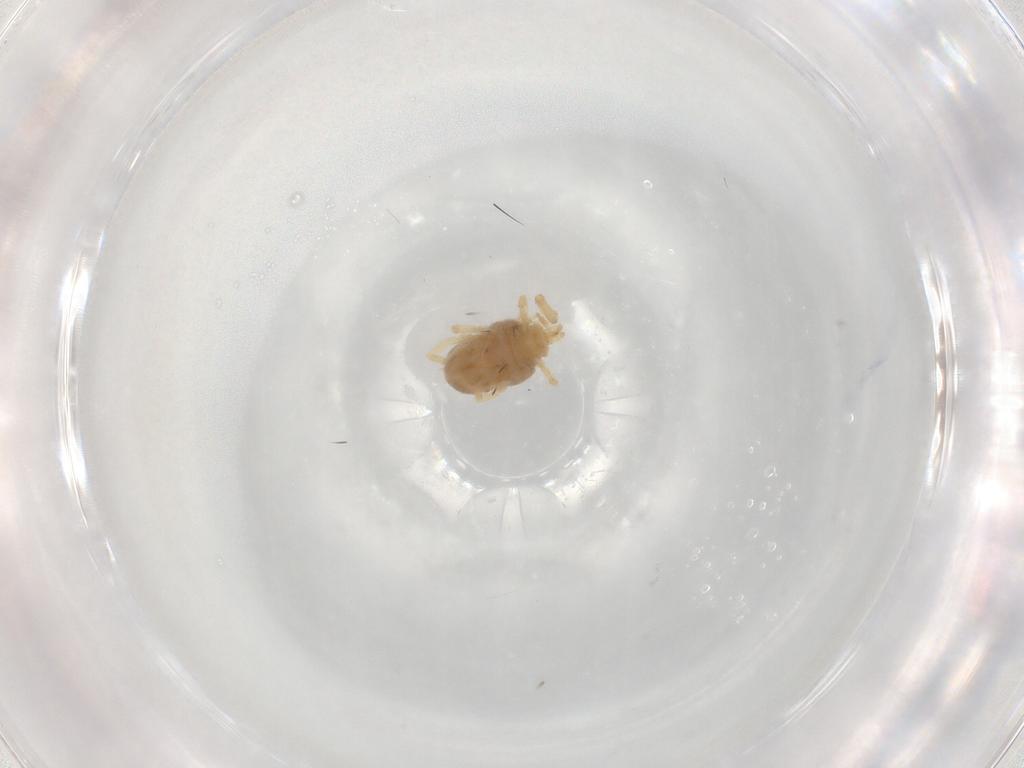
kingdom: Animalia
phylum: Arthropoda
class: Arachnida
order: Trombidiformes
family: Erythraeidae
